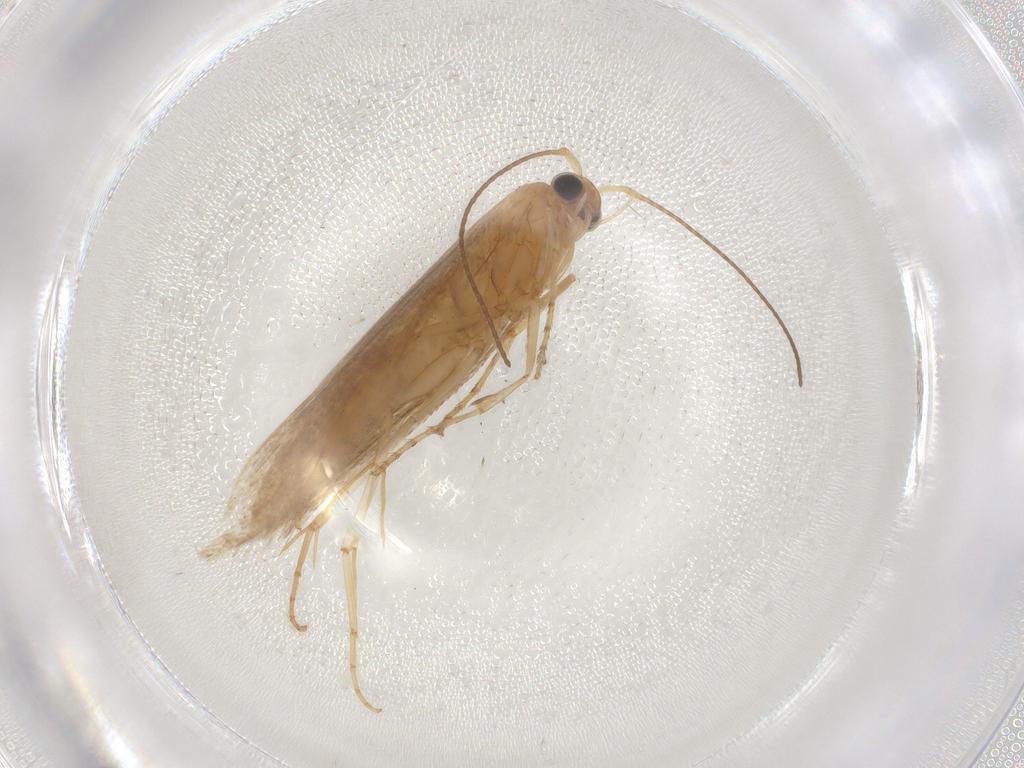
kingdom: Animalia
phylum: Arthropoda
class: Insecta
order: Lepidoptera
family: Argyresthiidae
